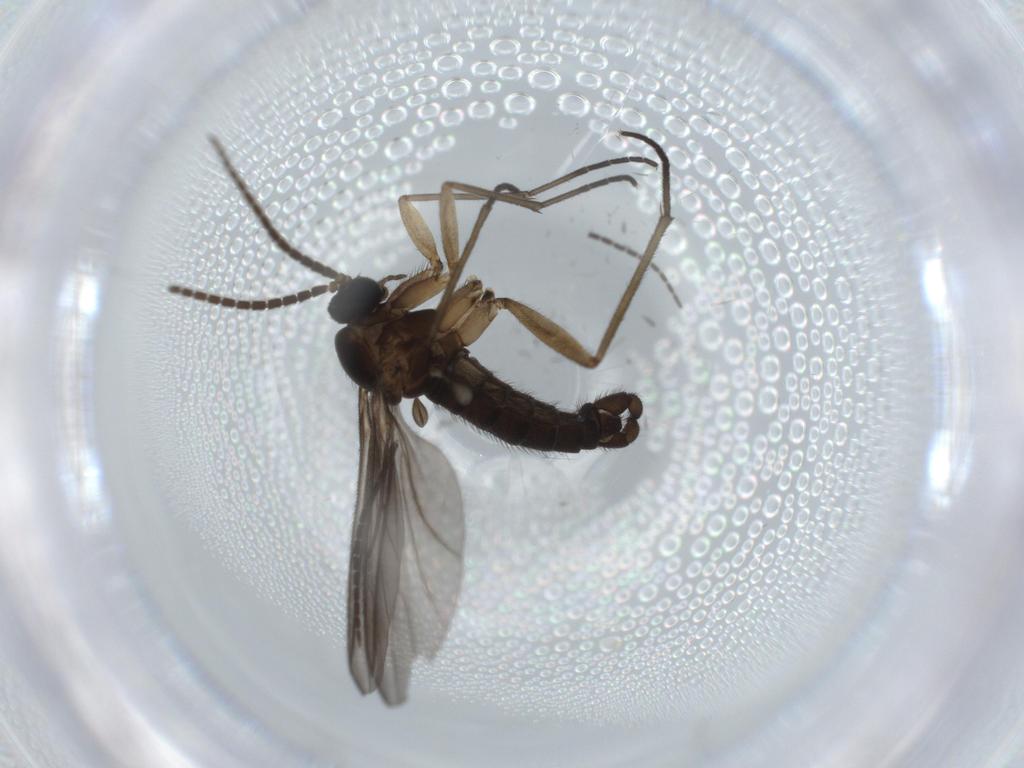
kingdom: Animalia
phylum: Arthropoda
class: Insecta
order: Diptera
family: Sciaridae
